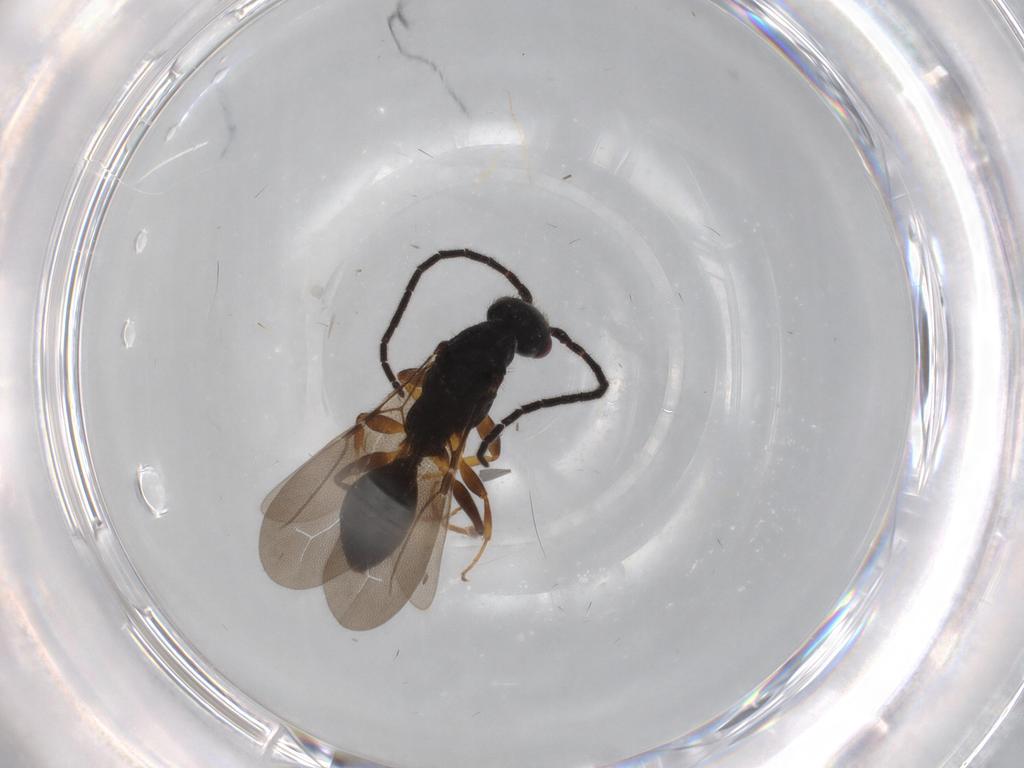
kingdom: Animalia
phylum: Arthropoda
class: Insecta
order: Hymenoptera
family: Bethylidae
